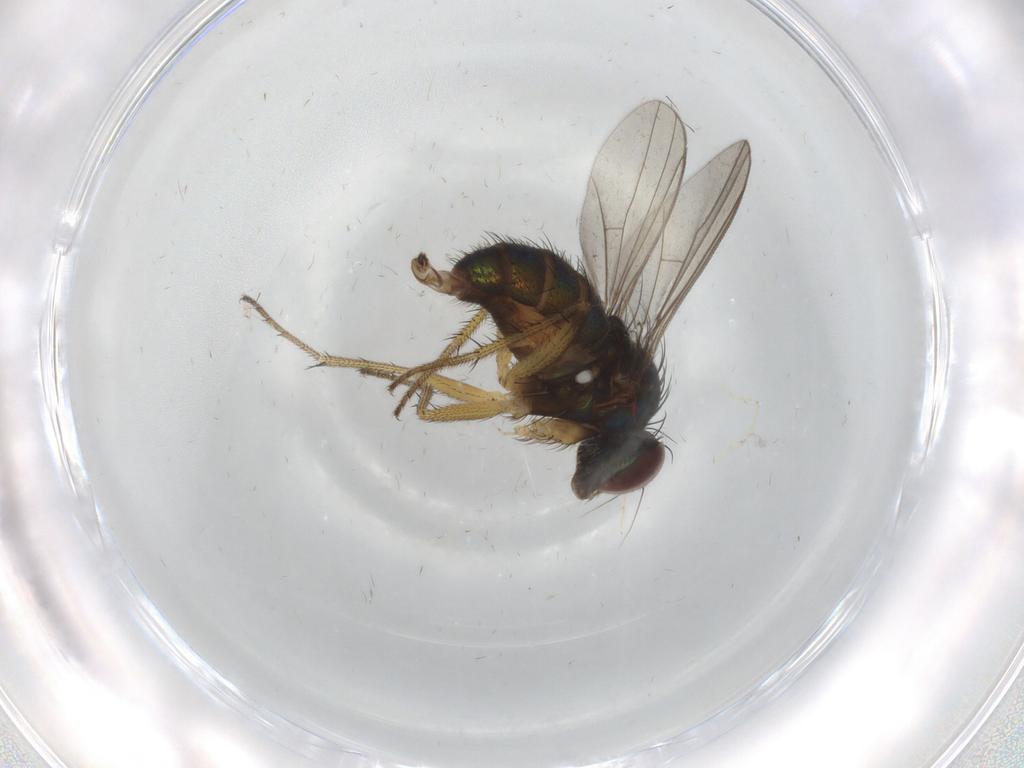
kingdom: Animalia
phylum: Arthropoda
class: Insecta
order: Diptera
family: Dolichopodidae
